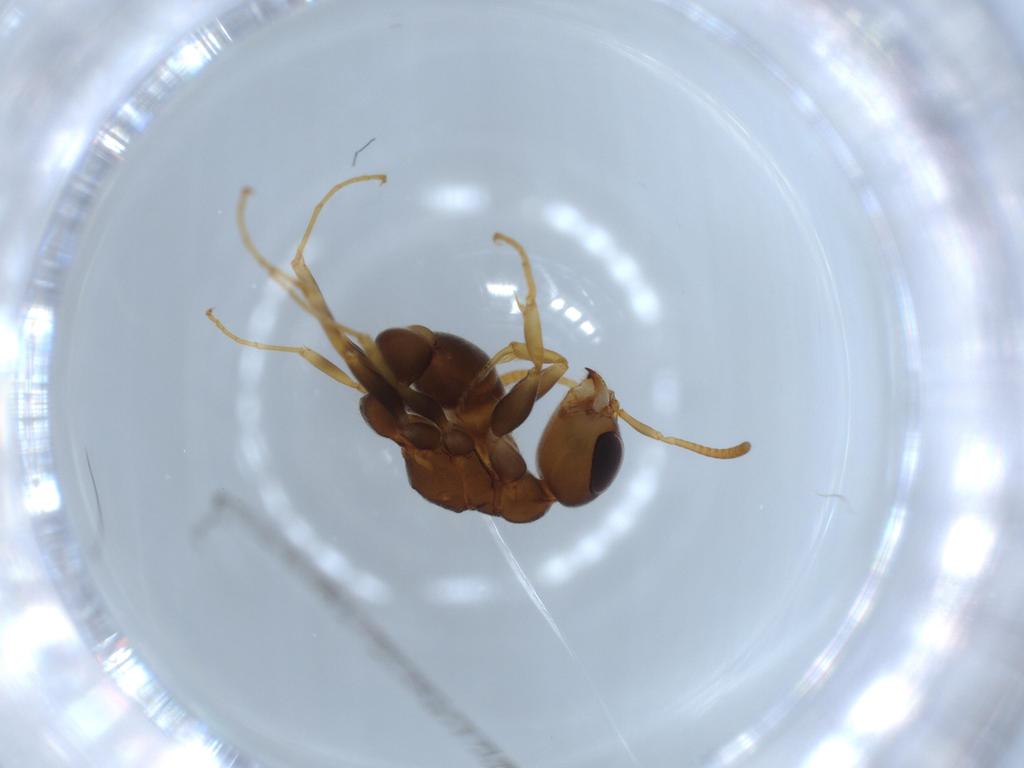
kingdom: Animalia
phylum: Arthropoda
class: Insecta
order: Hymenoptera
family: Formicidae
